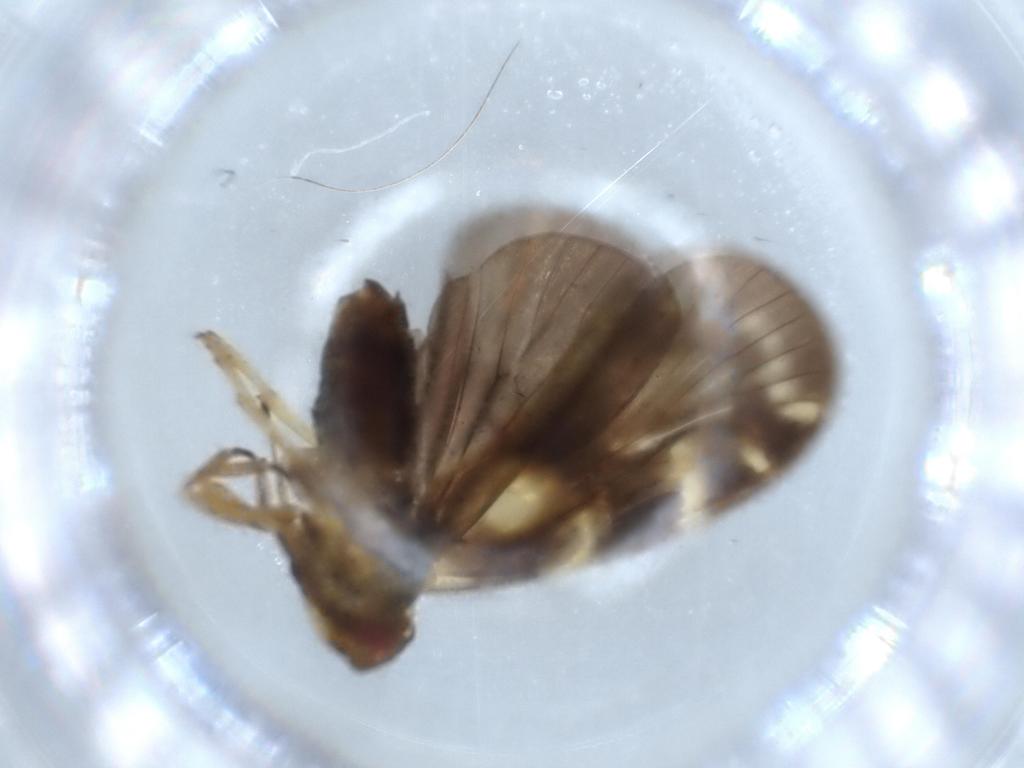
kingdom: Animalia
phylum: Arthropoda
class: Insecta
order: Hemiptera
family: Cixiidae
